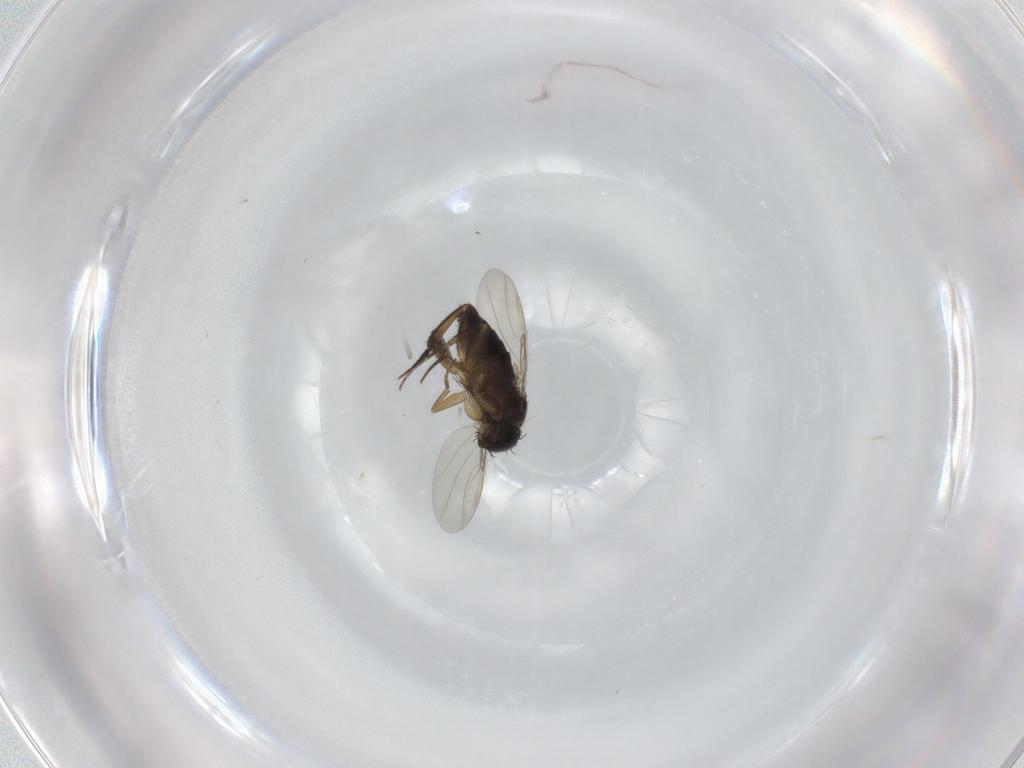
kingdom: Animalia
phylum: Arthropoda
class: Insecta
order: Diptera
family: Phoridae
